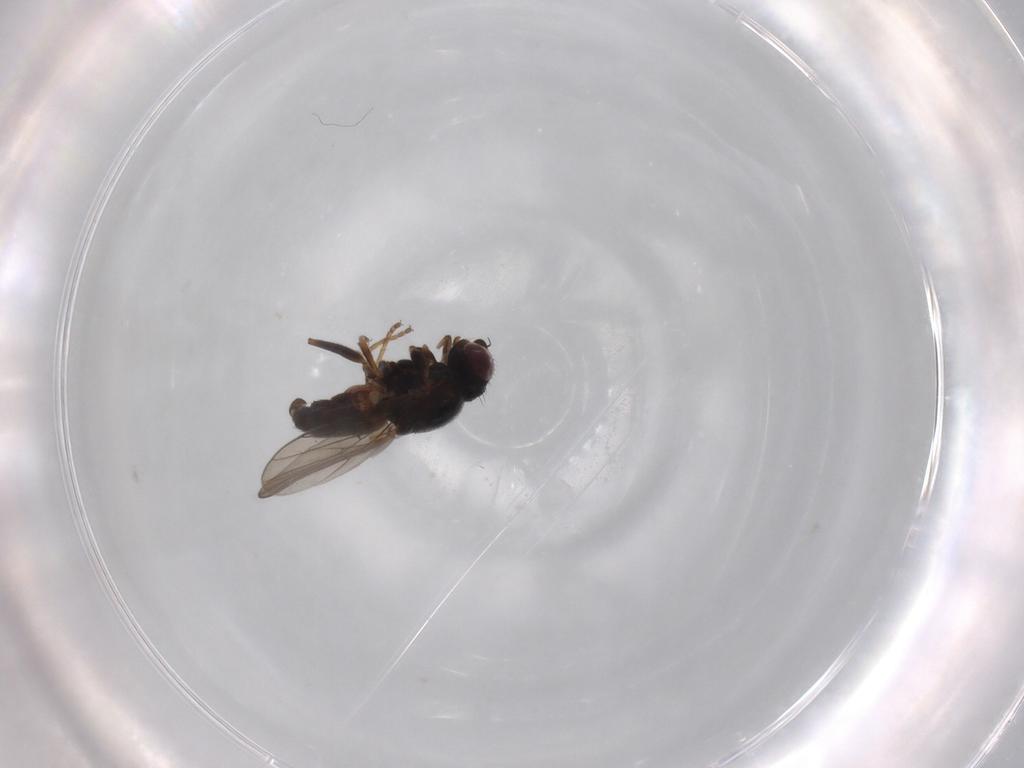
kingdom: Animalia
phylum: Arthropoda
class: Insecta
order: Diptera
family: Chloropidae
